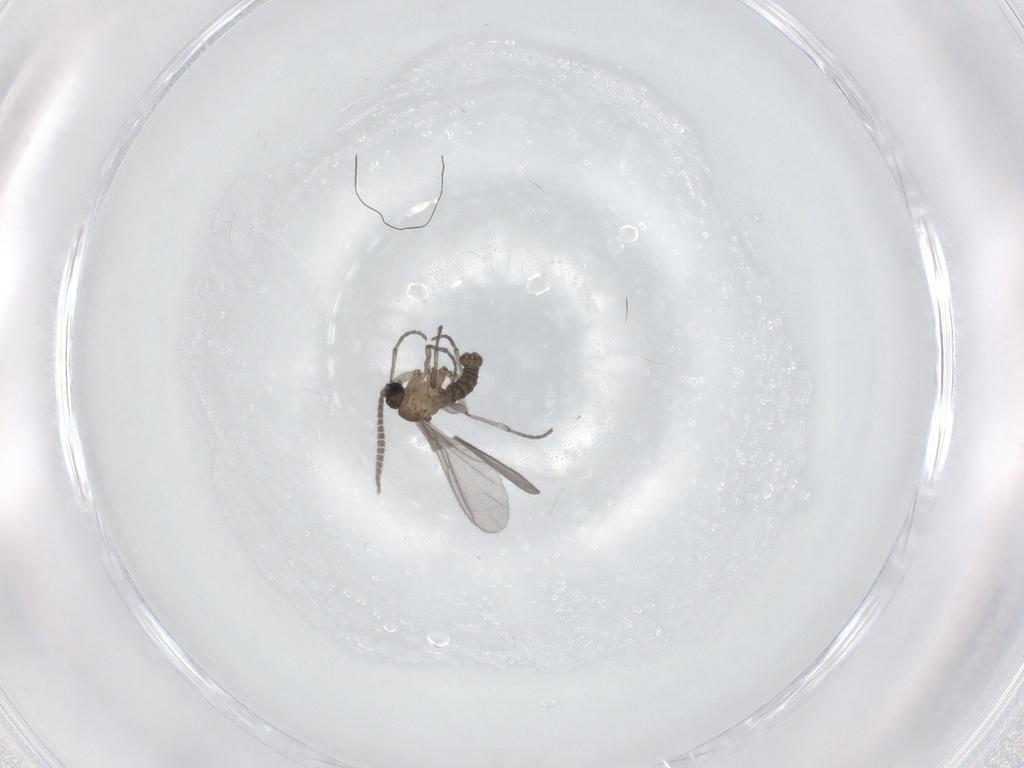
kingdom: Animalia
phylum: Arthropoda
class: Insecta
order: Diptera
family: Sciaridae
